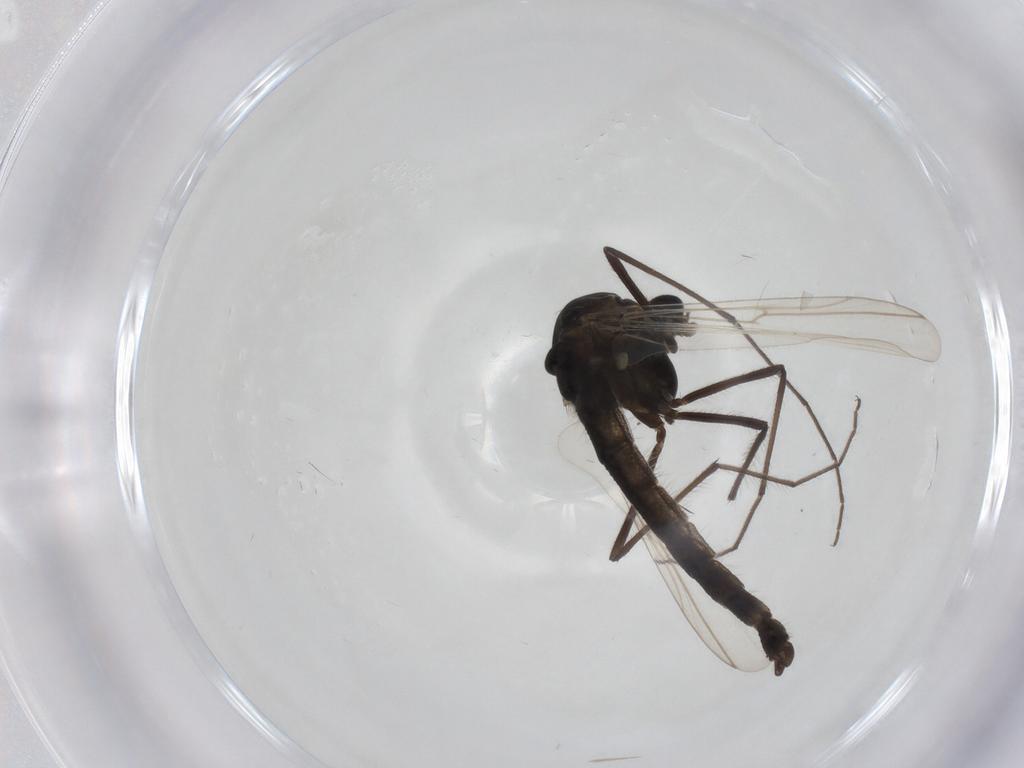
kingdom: Animalia
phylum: Arthropoda
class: Insecta
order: Diptera
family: Chironomidae
